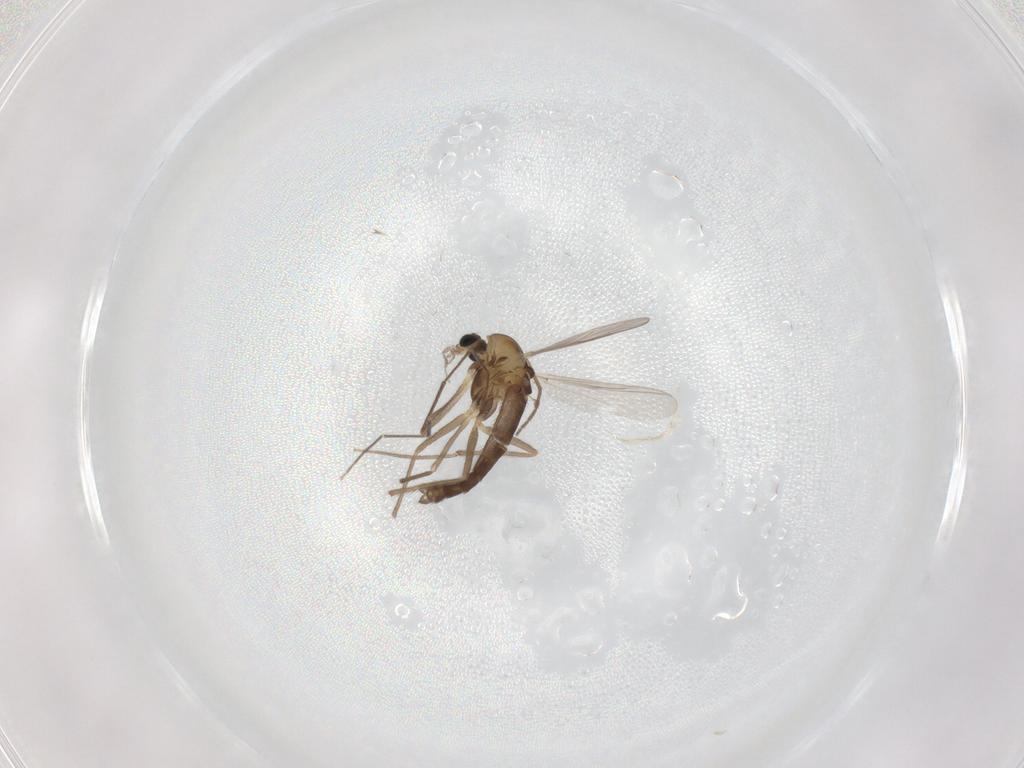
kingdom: Animalia
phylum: Arthropoda
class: Insecta
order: Diptera
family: Chironomidae
